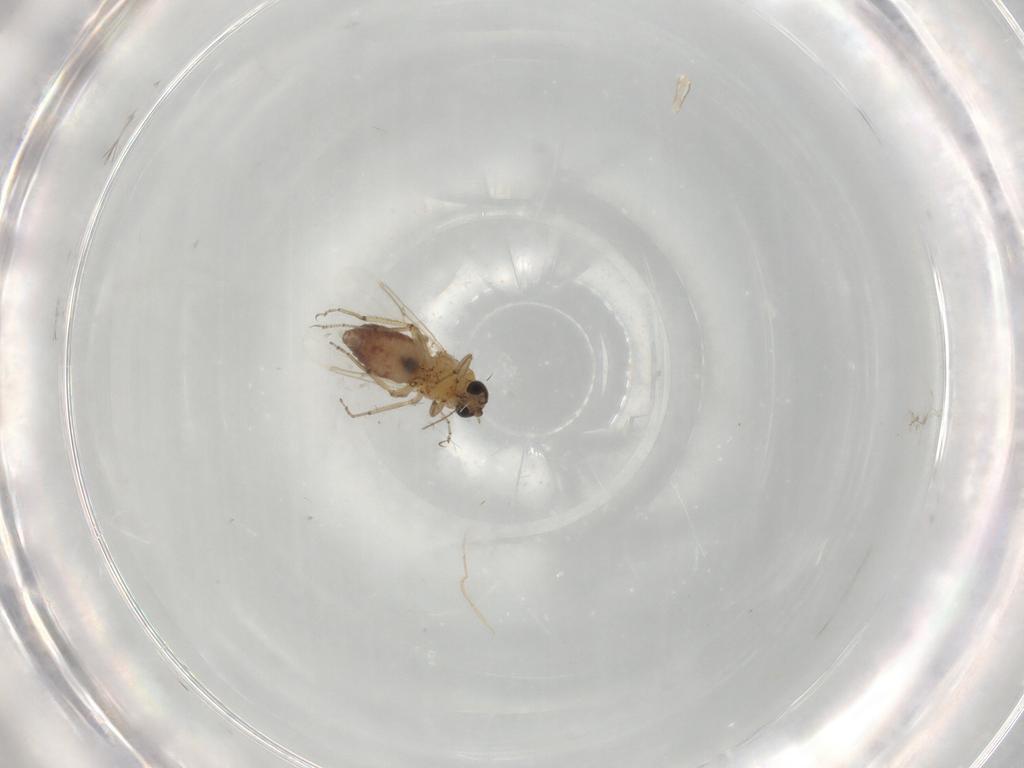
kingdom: Animalia
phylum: Arthropoda
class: Insecta
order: Diptera
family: Ceratopogonidae
